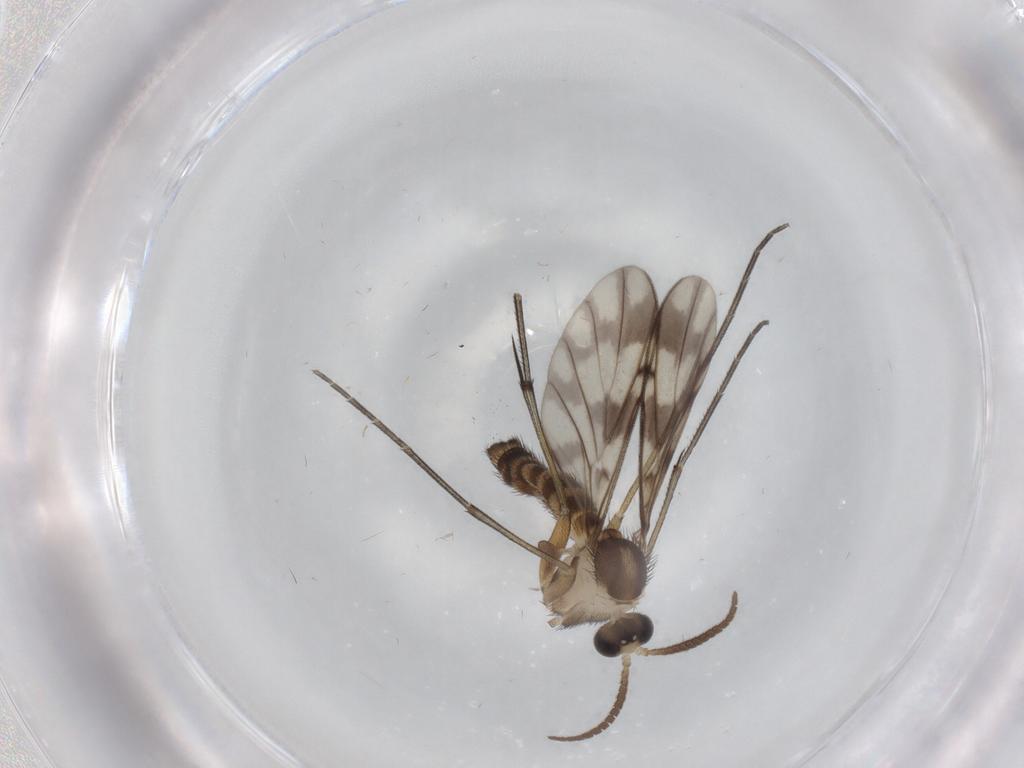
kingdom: Animalia
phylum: Arthropoda
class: Insecta
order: Diptera
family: Cecidomyiidae
